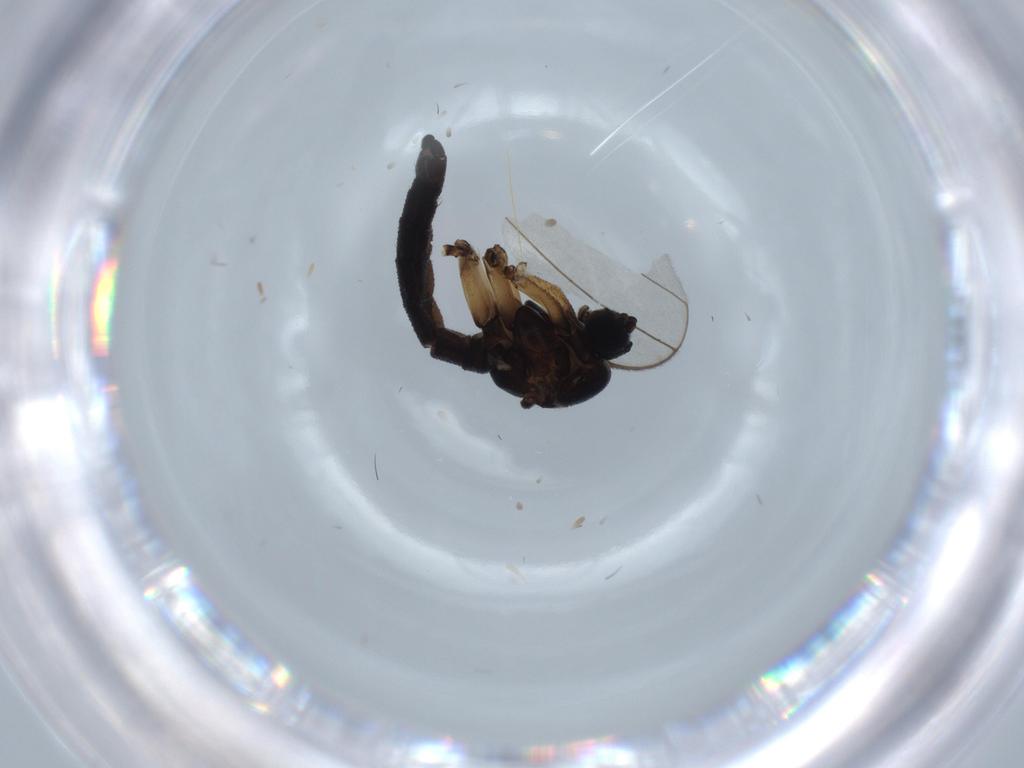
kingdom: Animalia
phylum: Arthropoda
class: Insecta
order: Diptera
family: Sciaridae
